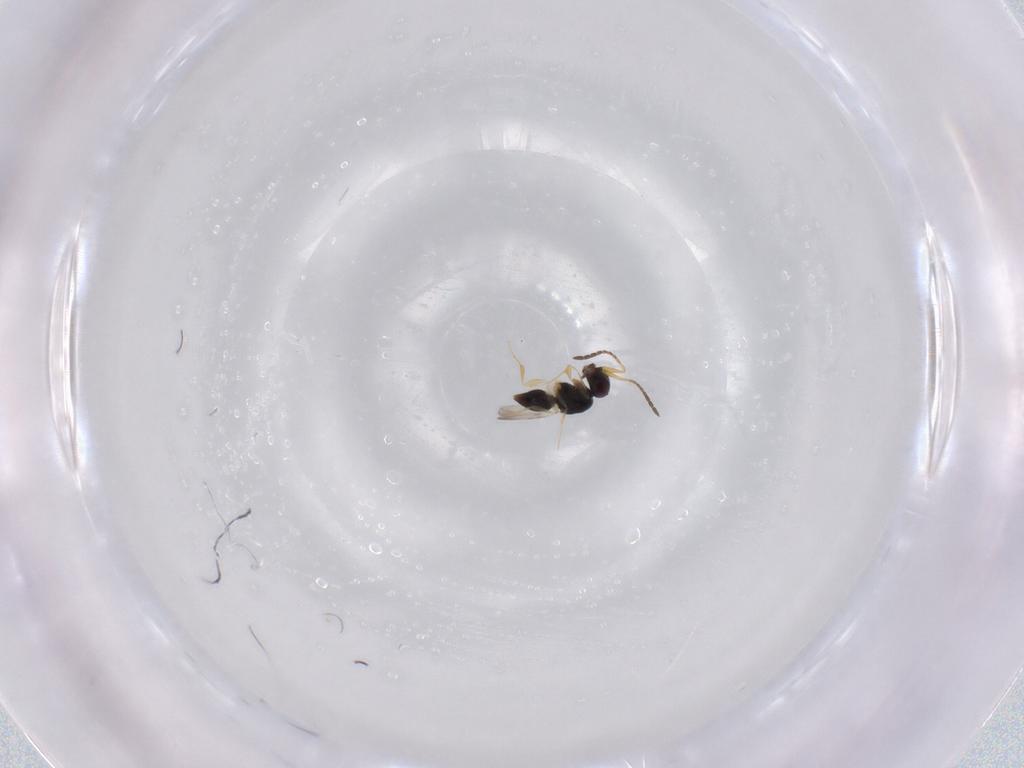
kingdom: Animalia
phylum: Arthropoda
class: Insecta
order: Hymenoptera
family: Ceraphronidae
